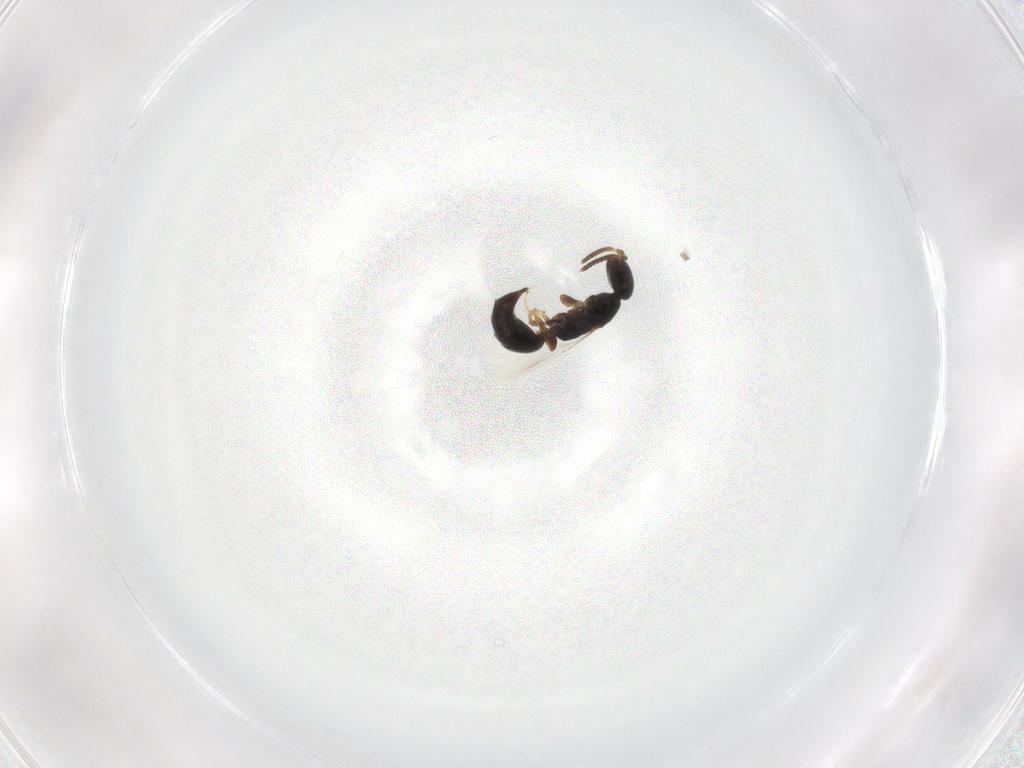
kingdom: Animalia
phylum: Arthropoda
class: Insecta
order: Hymenoptera
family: Bethylidae
